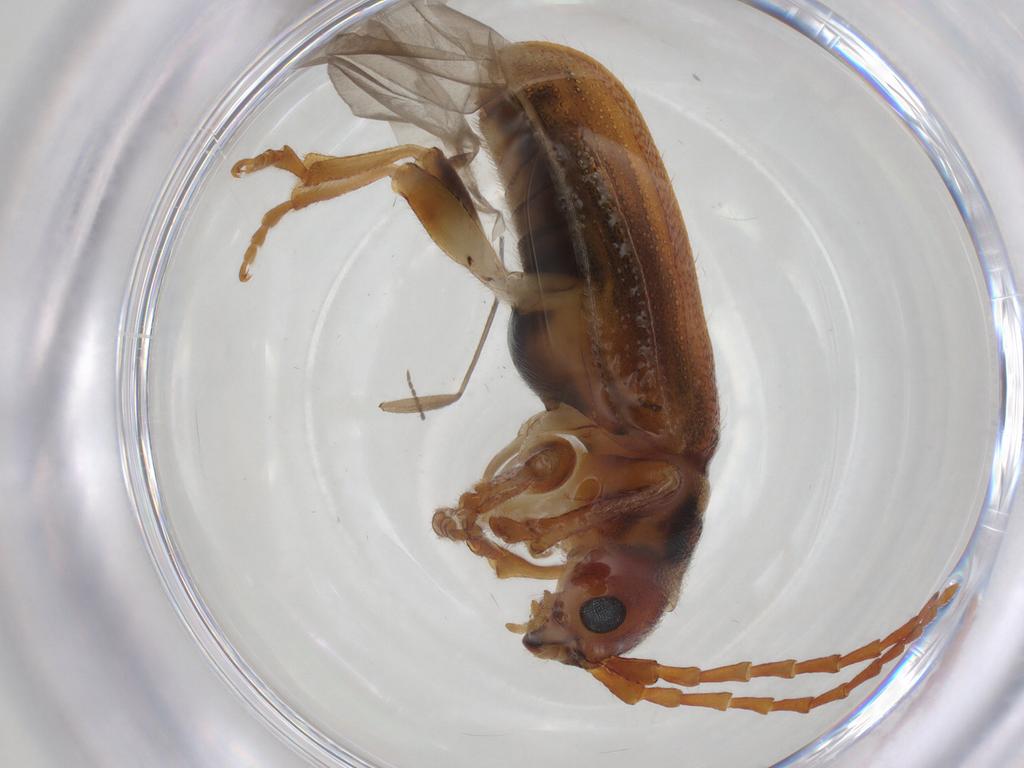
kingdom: Animalia
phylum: Arthropoda
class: Insecta
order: Coleoptera
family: Chrysomelidae
